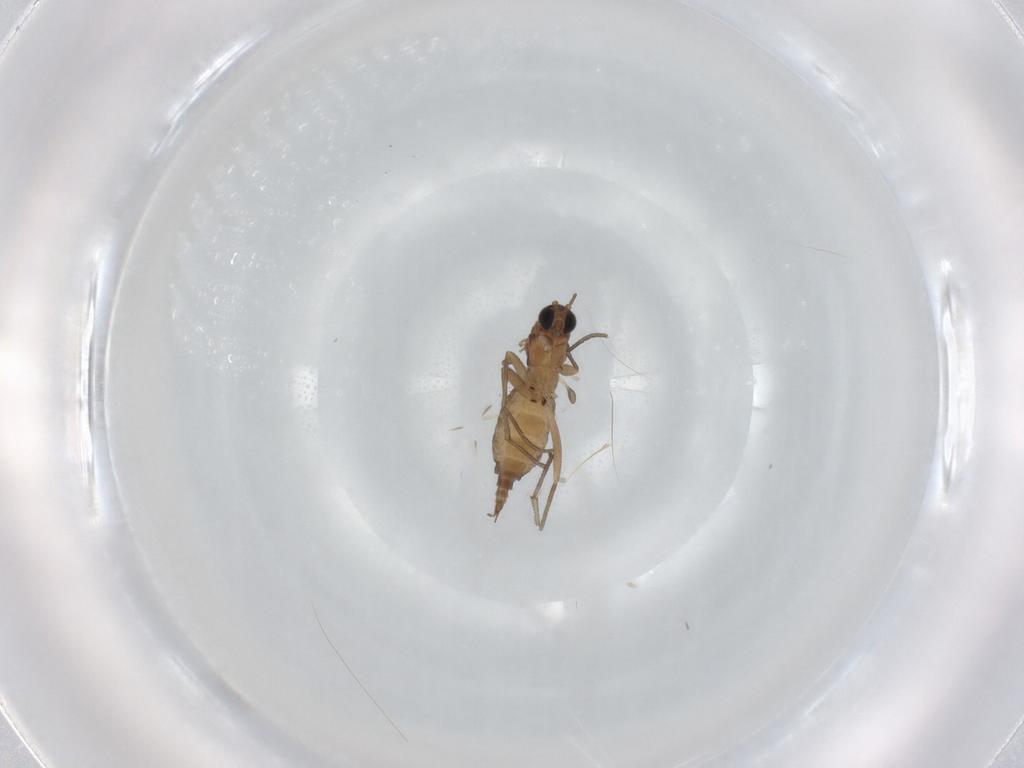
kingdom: Animalia
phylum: Arthropoda
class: Insecta
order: Diptera
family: Sciaridae
